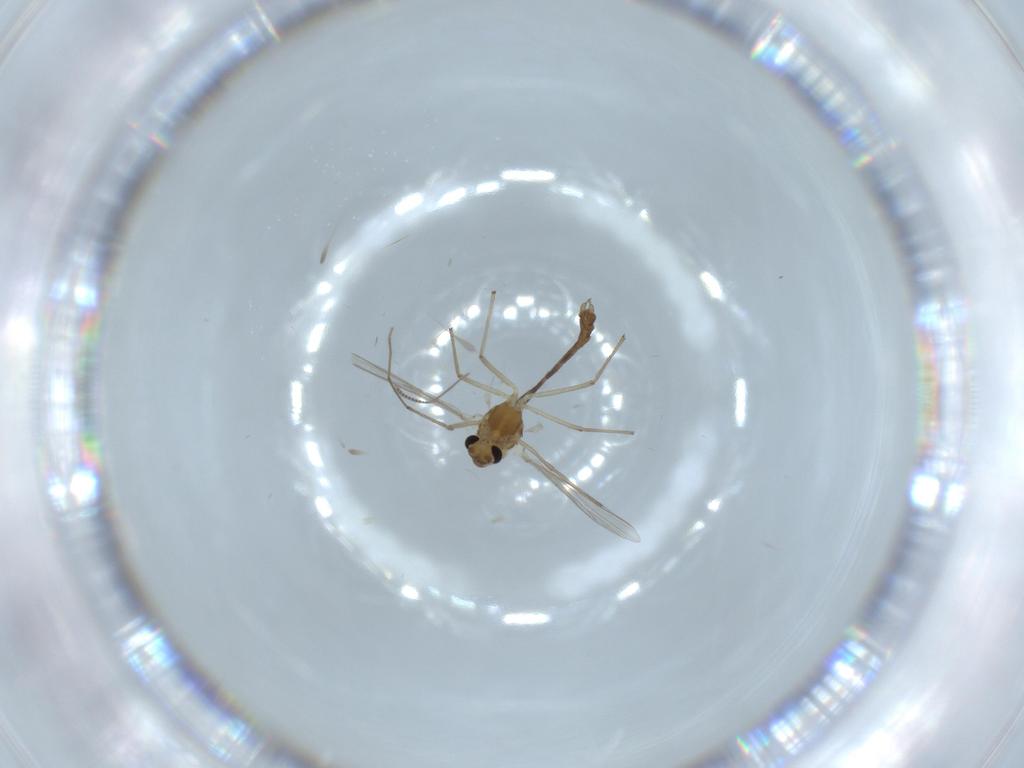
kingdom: Animalia
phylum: Arthropoda
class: Insecta
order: Diptera
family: Chironomidae
